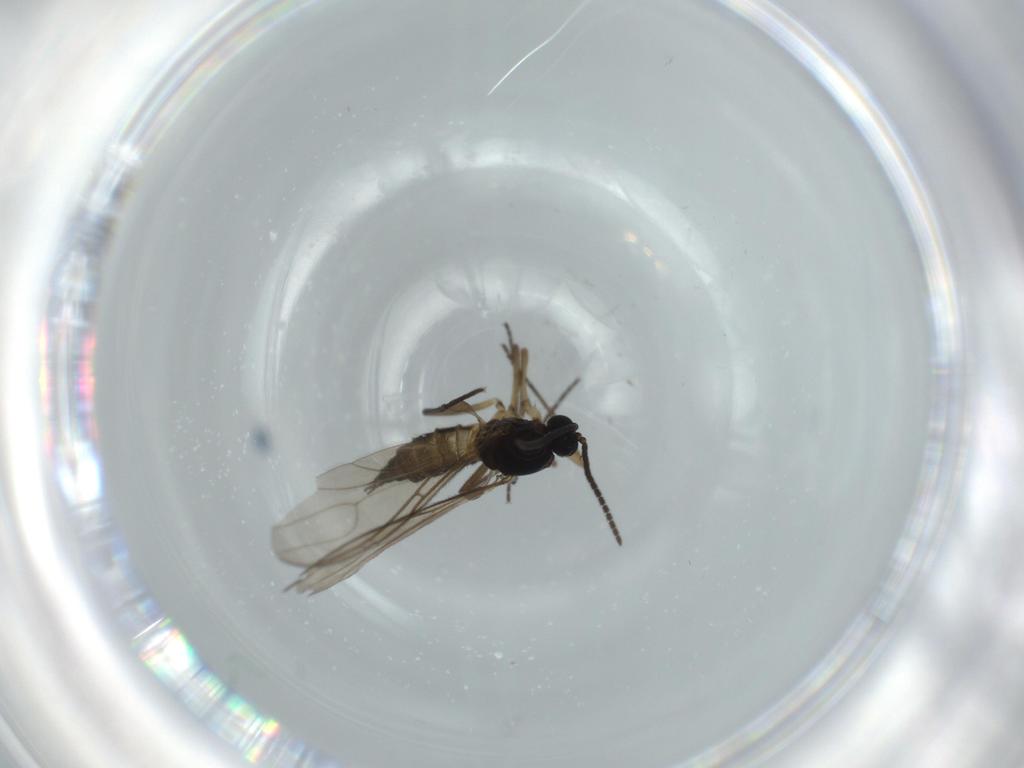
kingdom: Animalia
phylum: Arthropoda
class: Insecta
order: Diptera
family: Sciaridae
